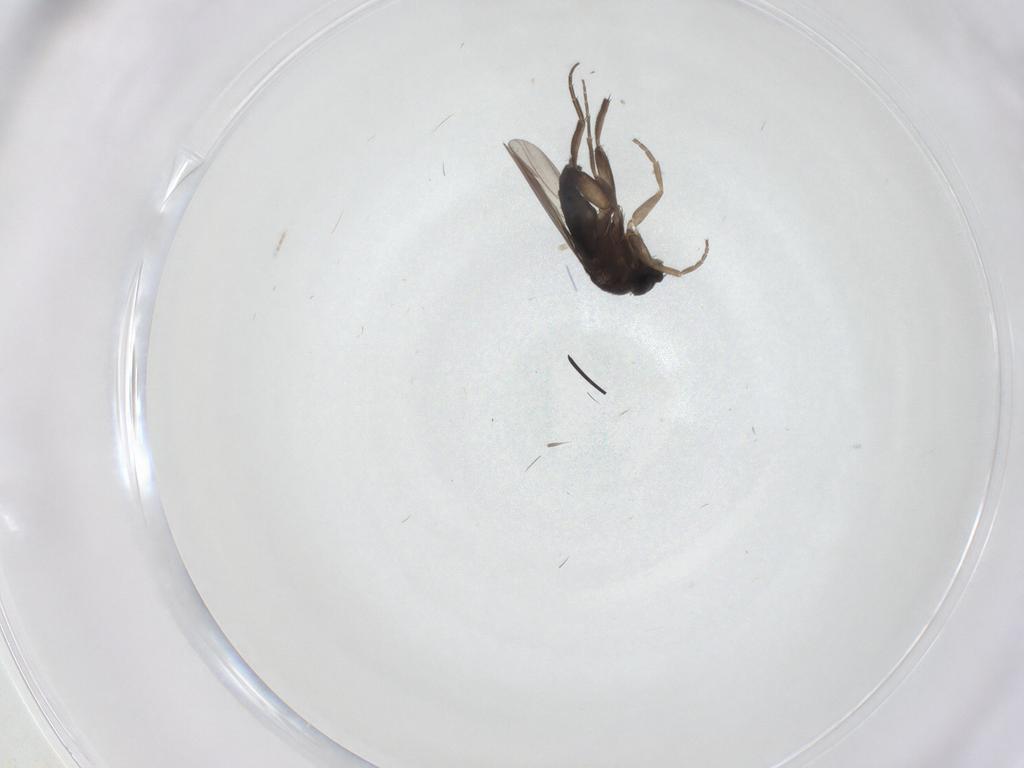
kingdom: Animalia
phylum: Arthropoda
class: Insecta
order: Diptera
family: Phoridae
